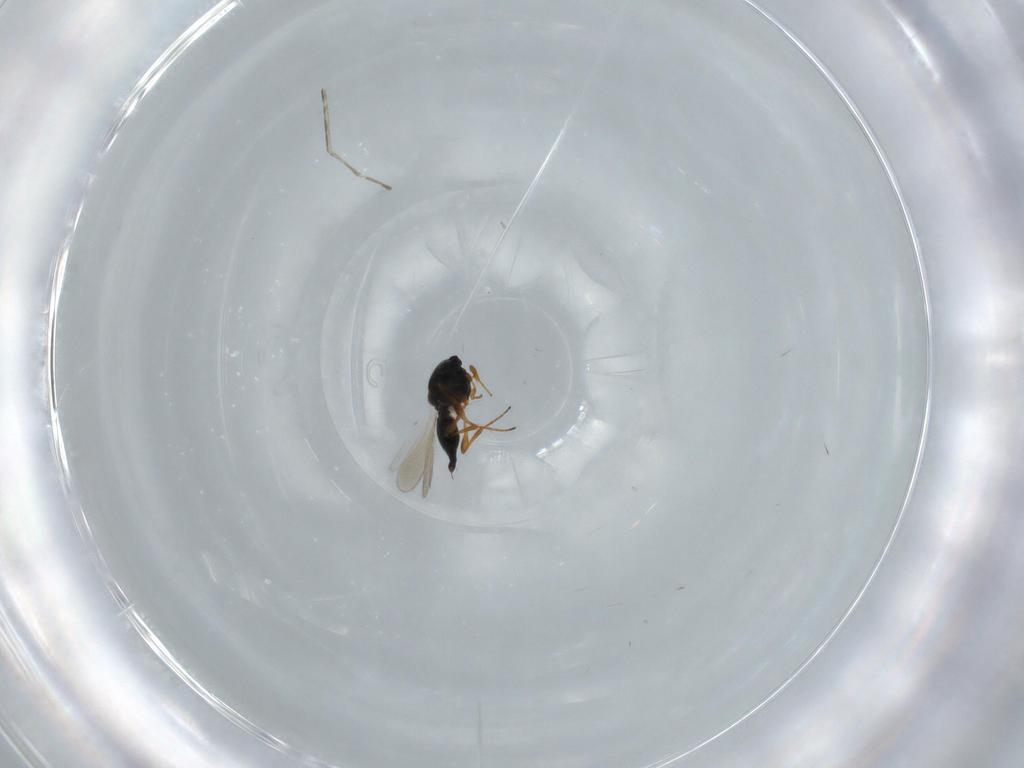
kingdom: Animalia
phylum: Arthropoda
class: Insecta
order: Hymenoptera
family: Platygastridae
